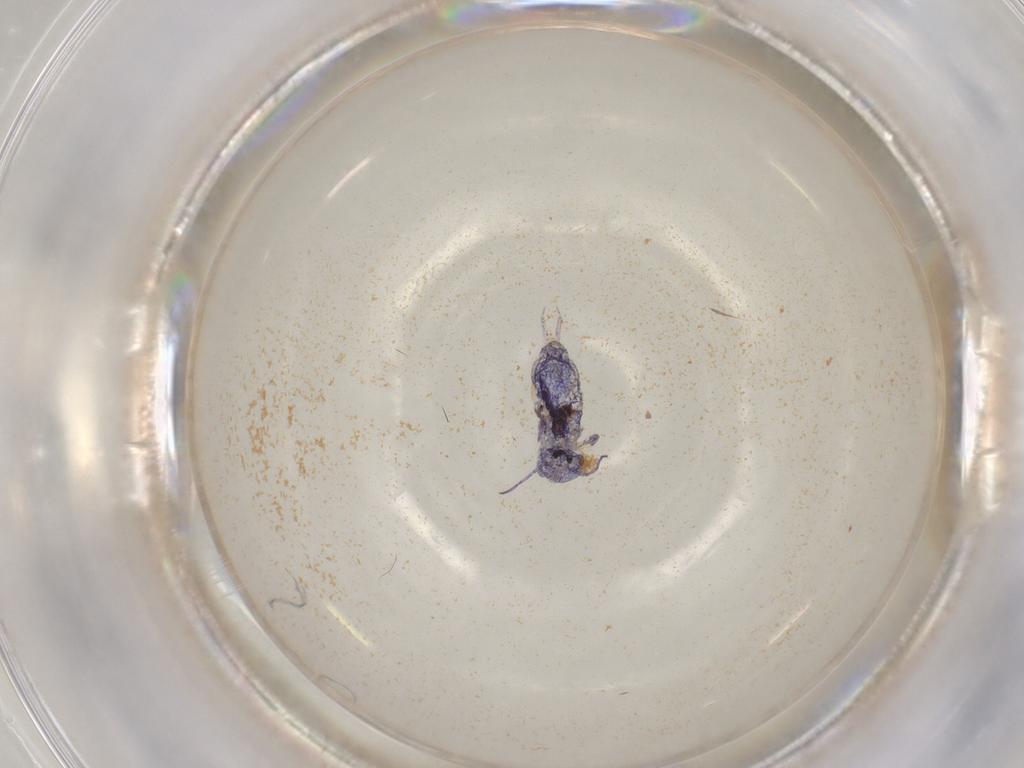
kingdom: Animalia
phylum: Arthropoda
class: Collembola
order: Symphypleona
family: Sminthuridae
